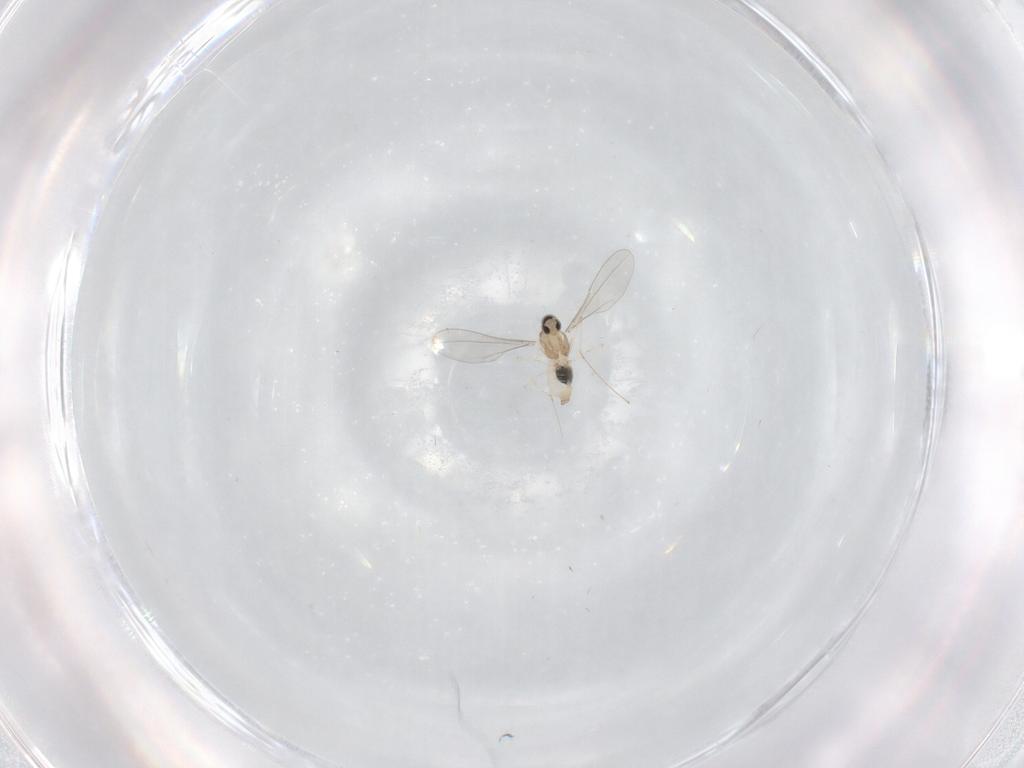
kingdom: Animalia
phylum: Arthropoda
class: Insecta
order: Diptera
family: Cecidomyiidae
